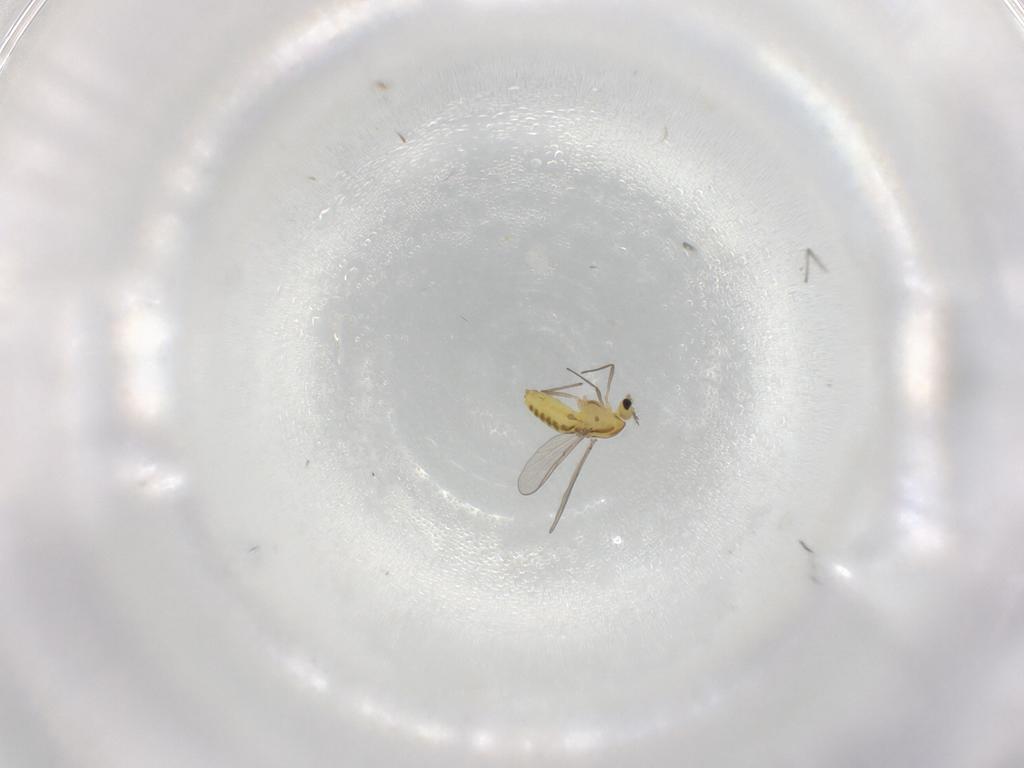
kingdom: Animalia
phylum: Arthropoda
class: Insecta
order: Diptera
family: Chironomidae
